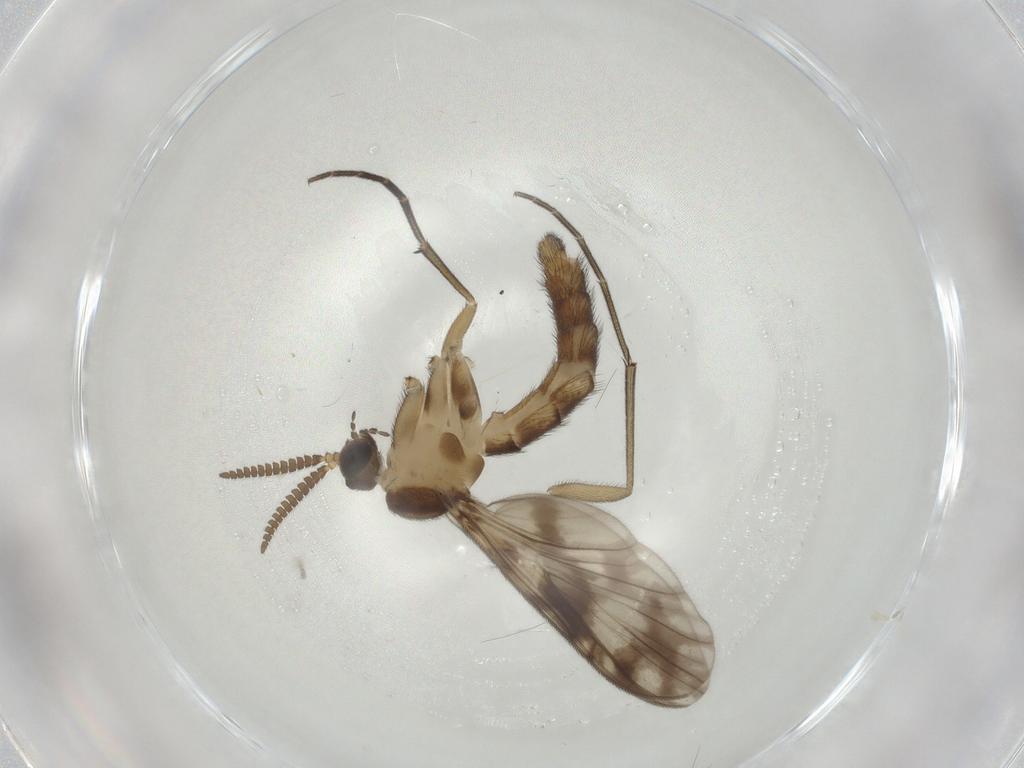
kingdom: Animalia
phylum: Arthropoda
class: Insecta
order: Diptera
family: Keroplatidae
